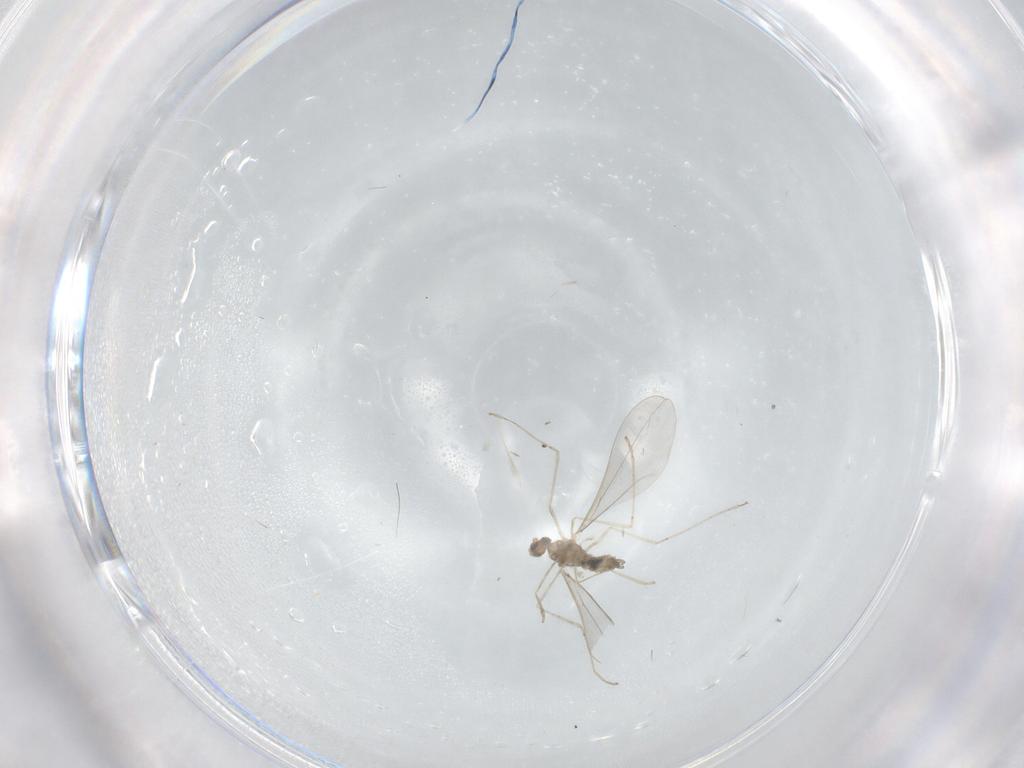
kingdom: Animalia
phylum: Arthropoda
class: Insecta
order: Diptera
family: Cecidomyiidae
